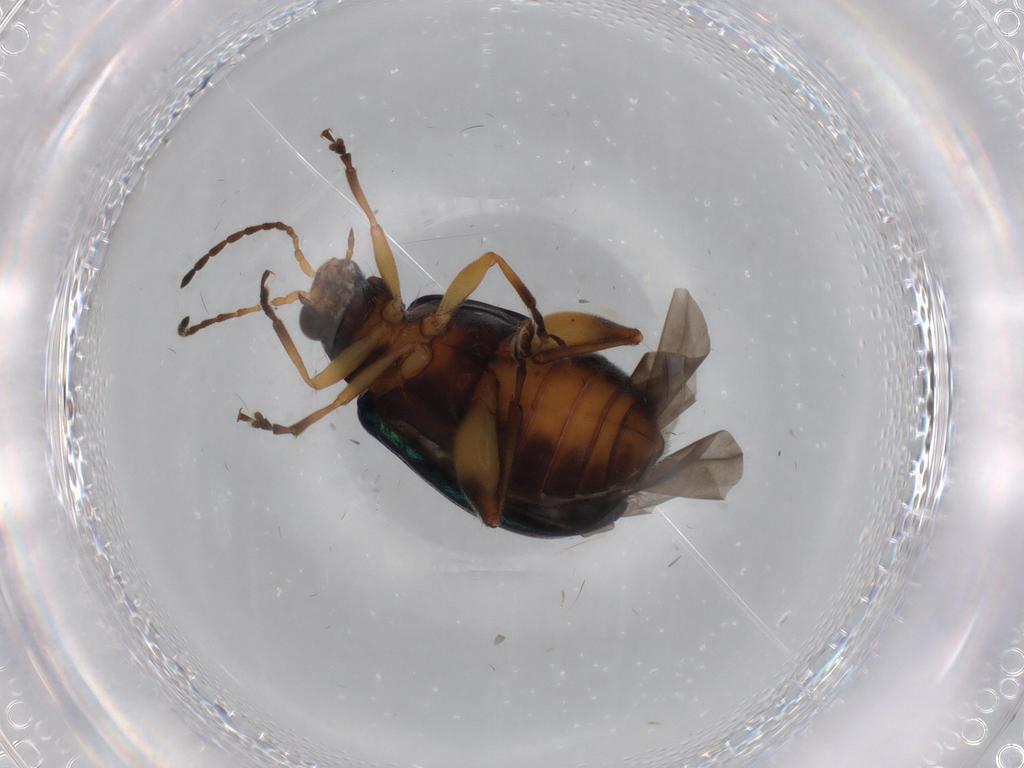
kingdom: Animalia
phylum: Arthropoda
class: Insecta
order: Coleoptera
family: Chrysomelidae
